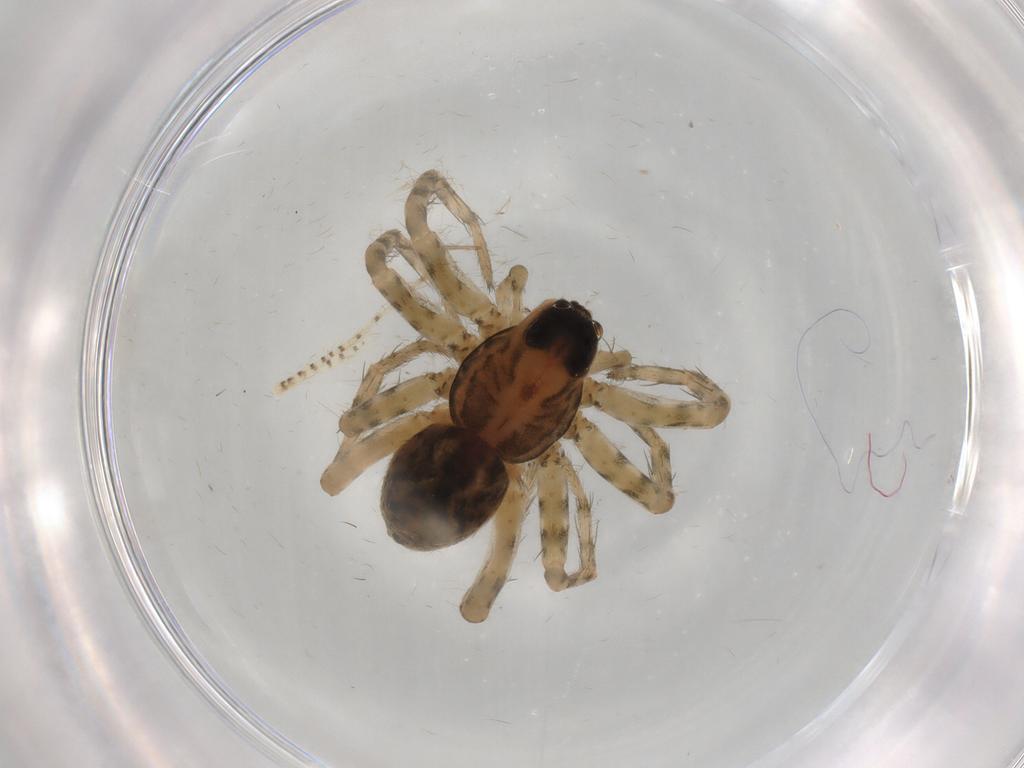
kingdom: Animalia
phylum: Arthropoda
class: Arachnida
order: Araneae
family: Lycosidae
